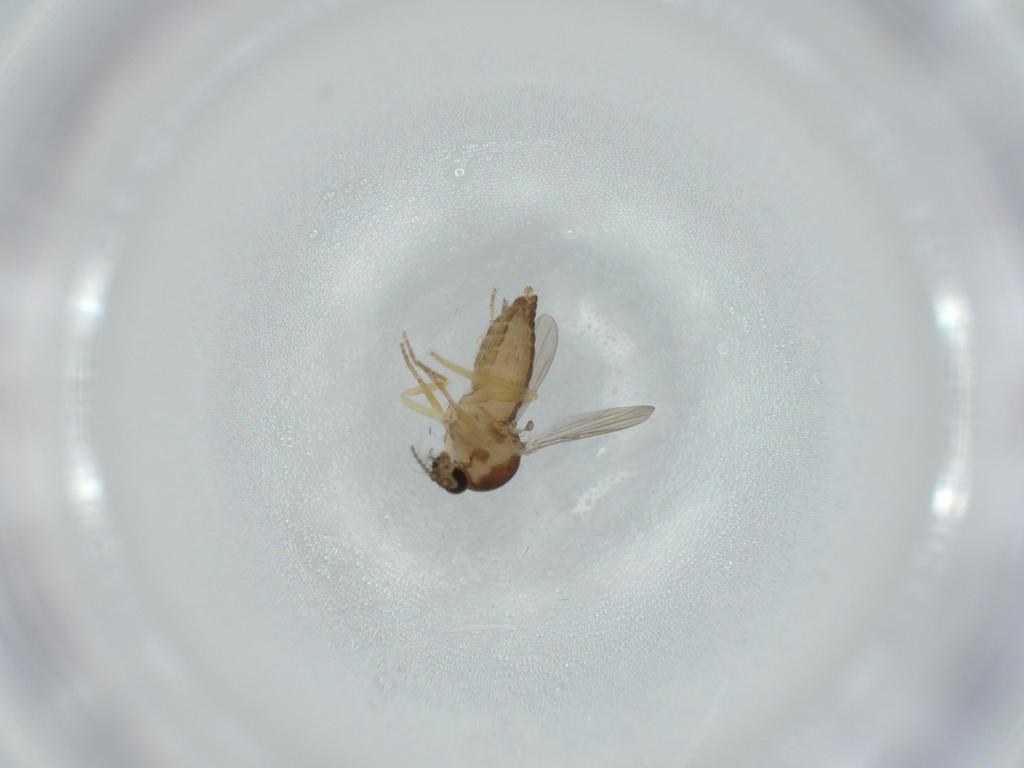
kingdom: Animalia
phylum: Arthropoda
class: Insecta
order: Diptera
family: Ceratopogonidae
